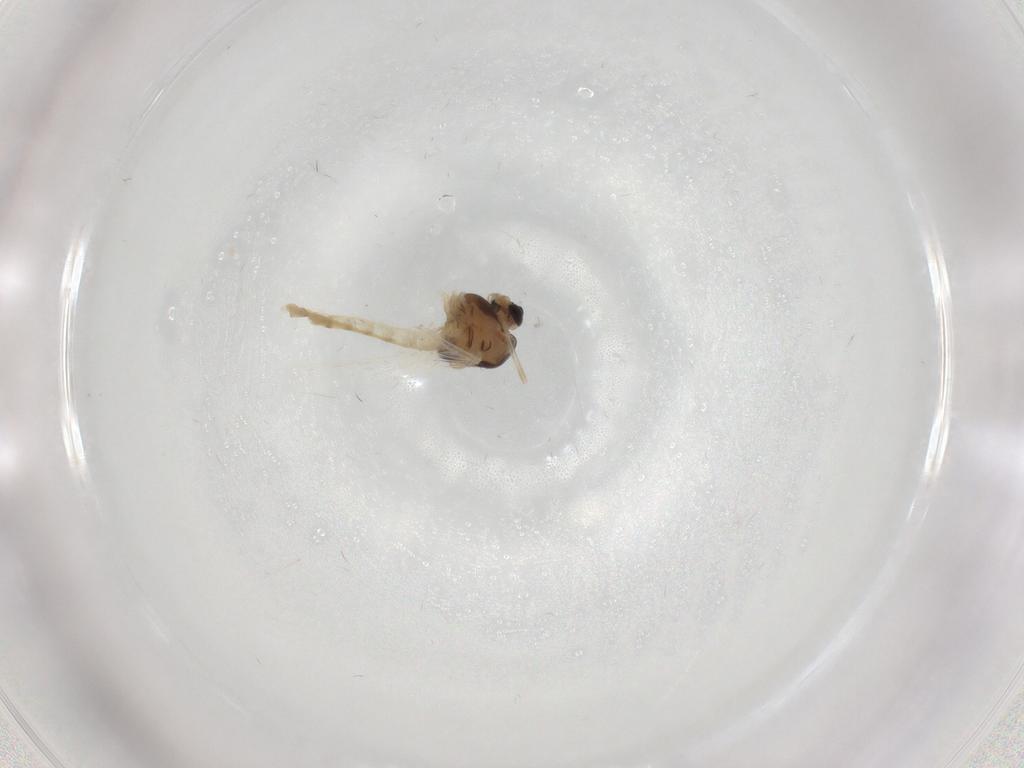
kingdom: Animalia
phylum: Arthropoda
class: Insecta
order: Diptera
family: Chironomidae
